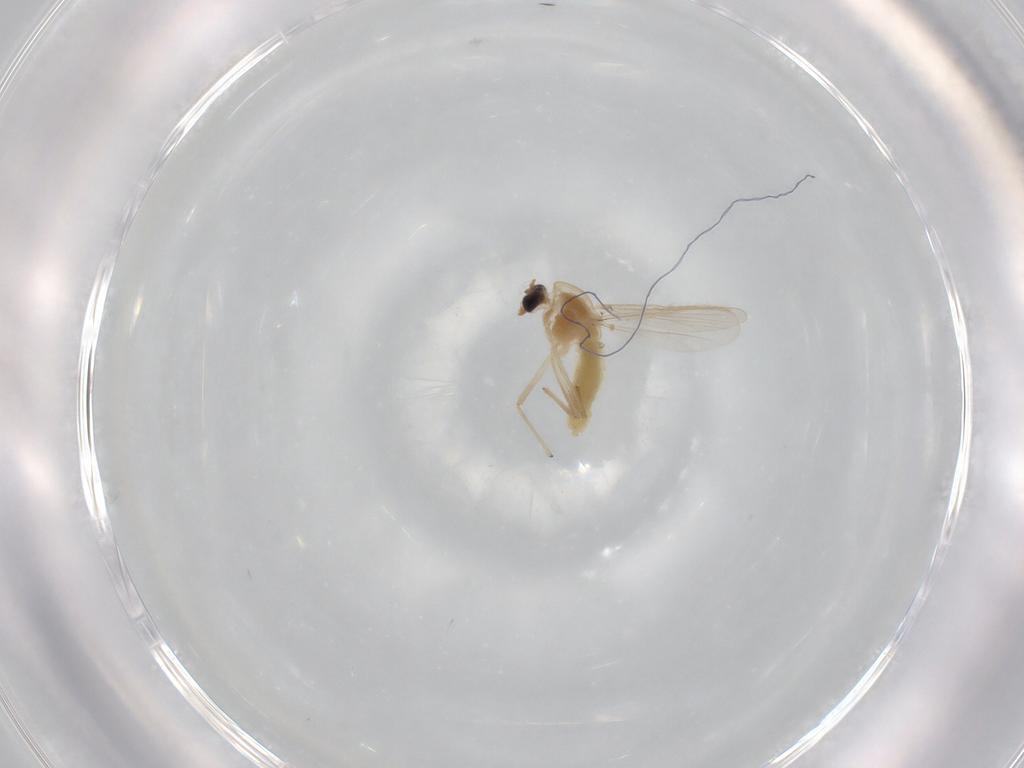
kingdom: Animalia
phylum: Arthropoda
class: Insecta
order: Diptera
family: Chironomidae
